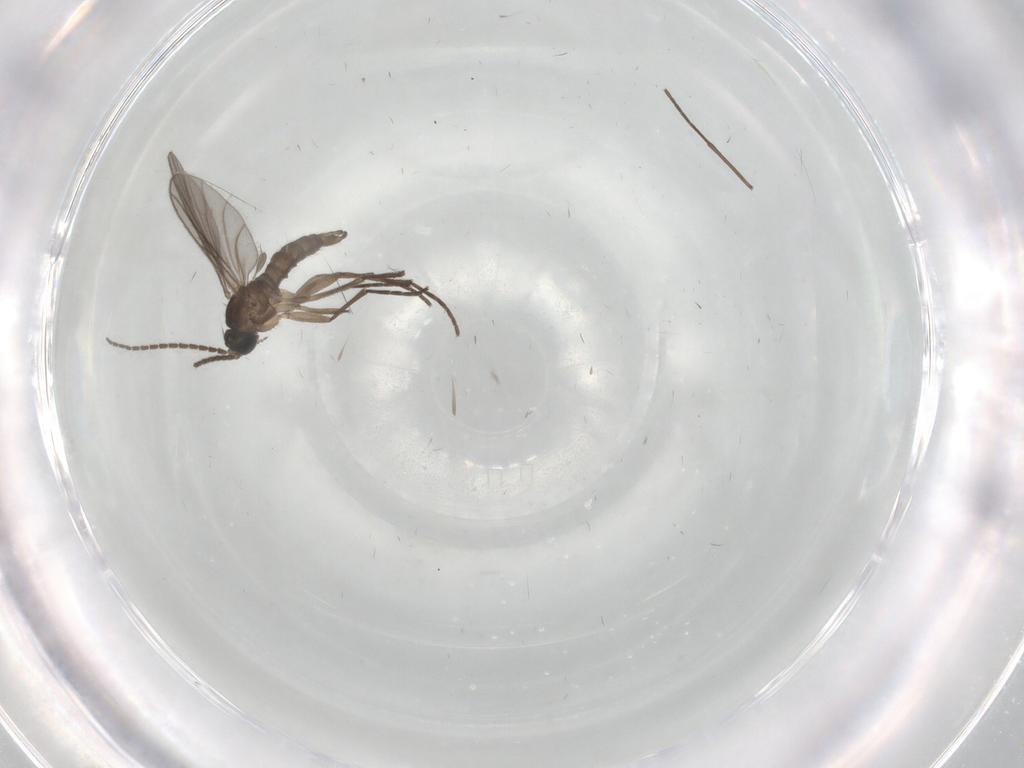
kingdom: Animalia
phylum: Arthropoda
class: Insecta
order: Diptera
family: Sciaridae
